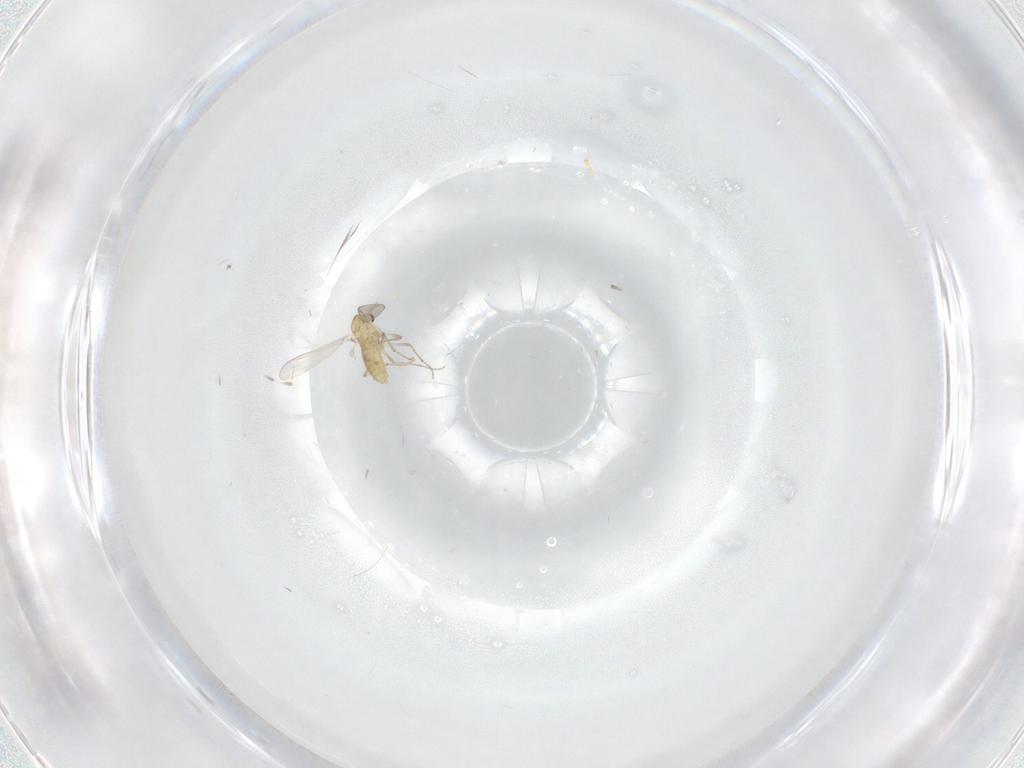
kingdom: Animalia
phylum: Arthropoda
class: Insecta
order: Diptera
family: Chironomidae
